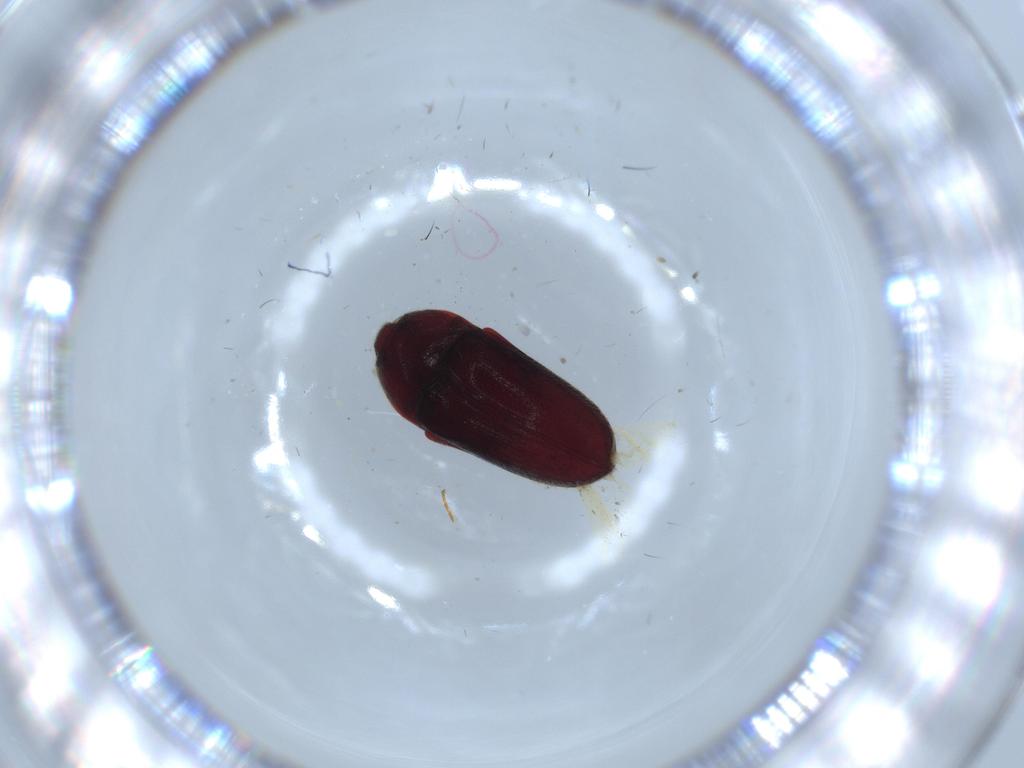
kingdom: Animalia
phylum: Arthropoda
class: Insecta
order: Coleoptera
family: Throscidae
